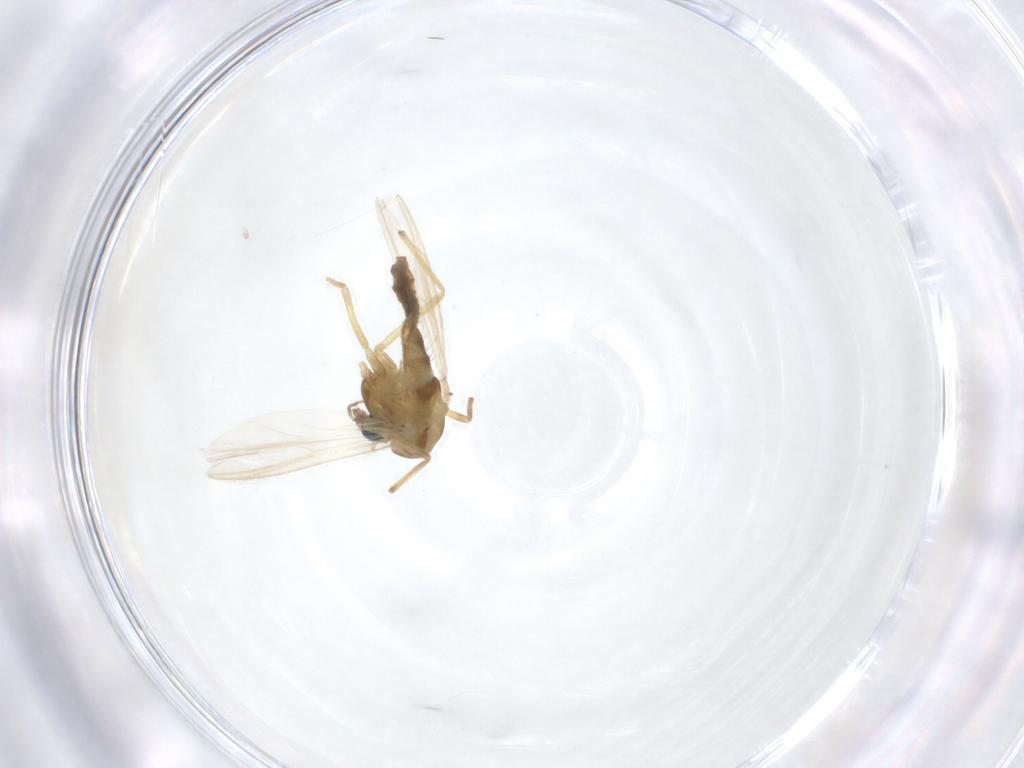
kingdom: Animalia
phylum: Arthropoda
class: Insecta
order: Diptera
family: Chironomidae
